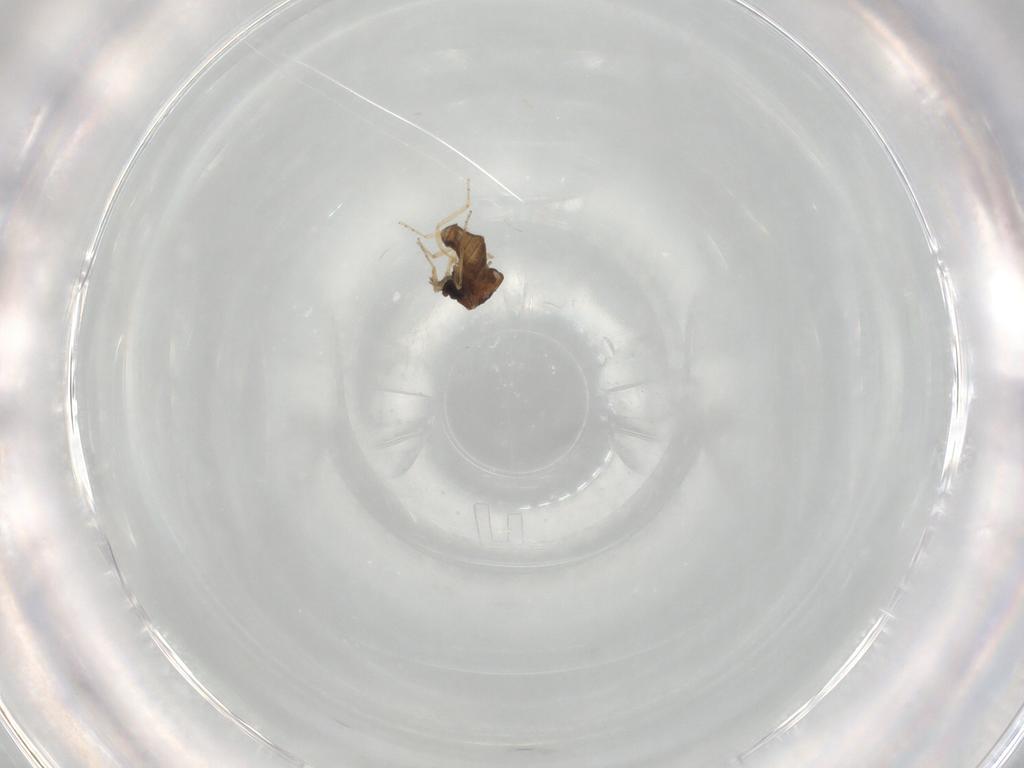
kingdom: Animalia
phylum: Arthropoda
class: Insecta
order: Diptera
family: Ceratopogonidae
